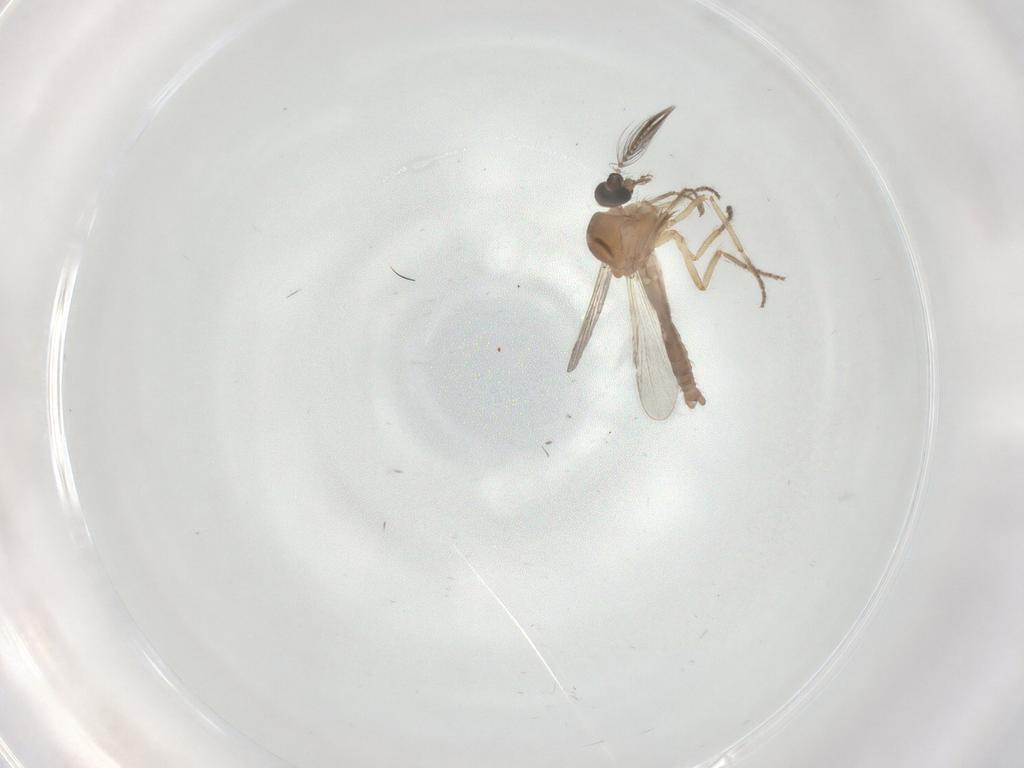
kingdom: Animalia
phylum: Arthropoda
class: Insecta
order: Diptera
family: Ceratopogonidae
